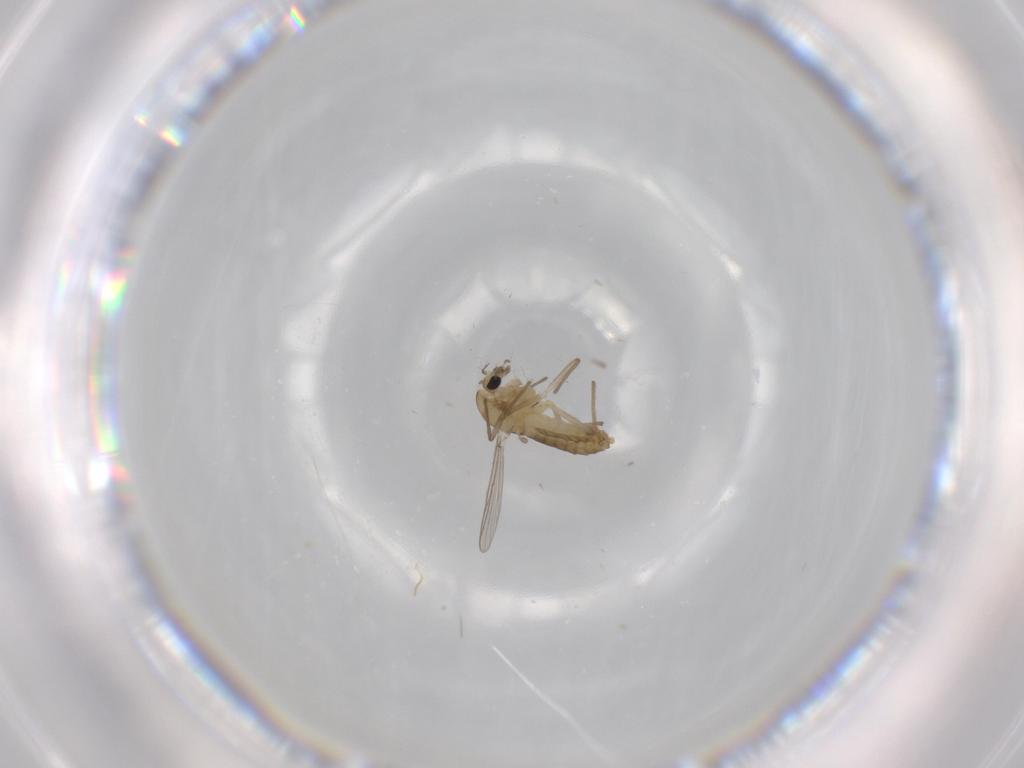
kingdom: Animalia
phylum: Arthropoda
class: Insecta
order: Diptera
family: Chironomidae
